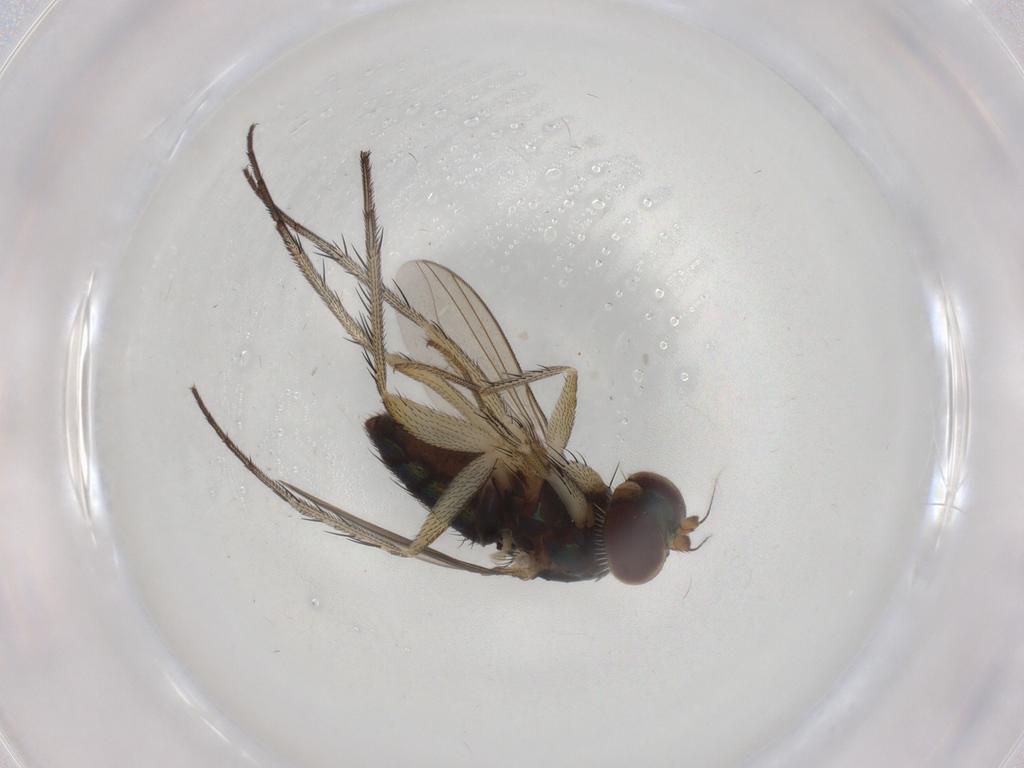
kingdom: Animalia
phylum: Arthropoda
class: Insecta
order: Diptera
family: Dolichopodidae
